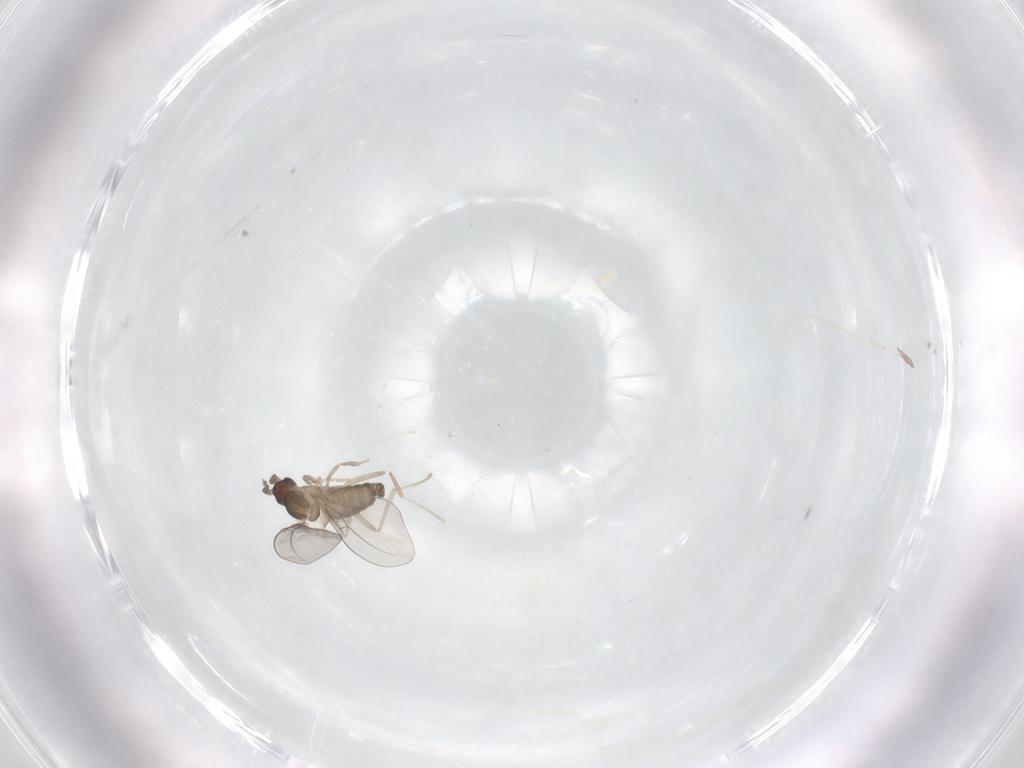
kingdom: Animalia
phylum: Arthropoda
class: Insecta
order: Diptera
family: Cecidomyiidae
